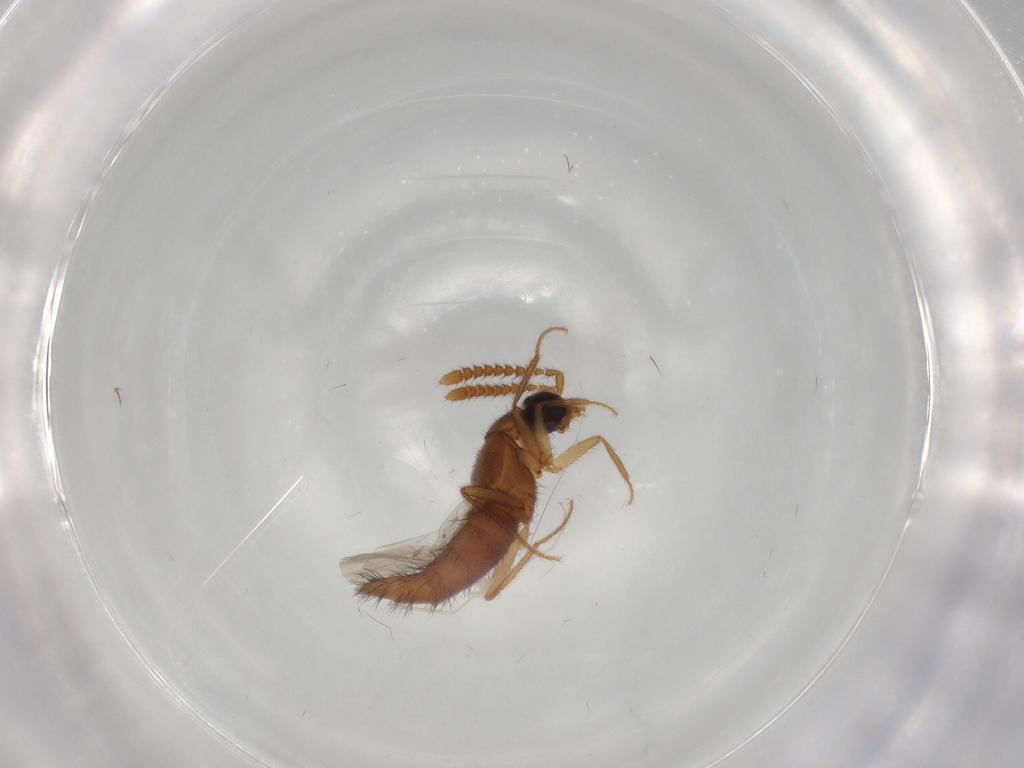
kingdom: Animalia
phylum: Arthropoda
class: Insecta
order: Coleoptera
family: Staphylinidae
